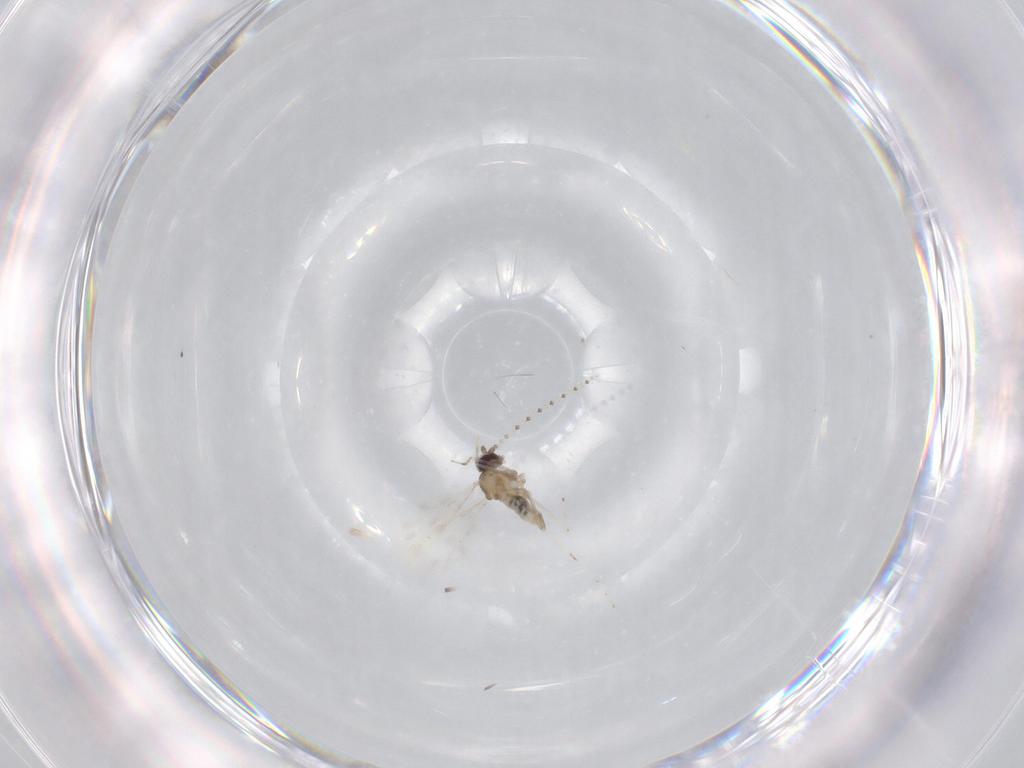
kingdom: Animalia
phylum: Arthropoda
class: Insecta
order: Diptera
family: Cecidomyiidae
